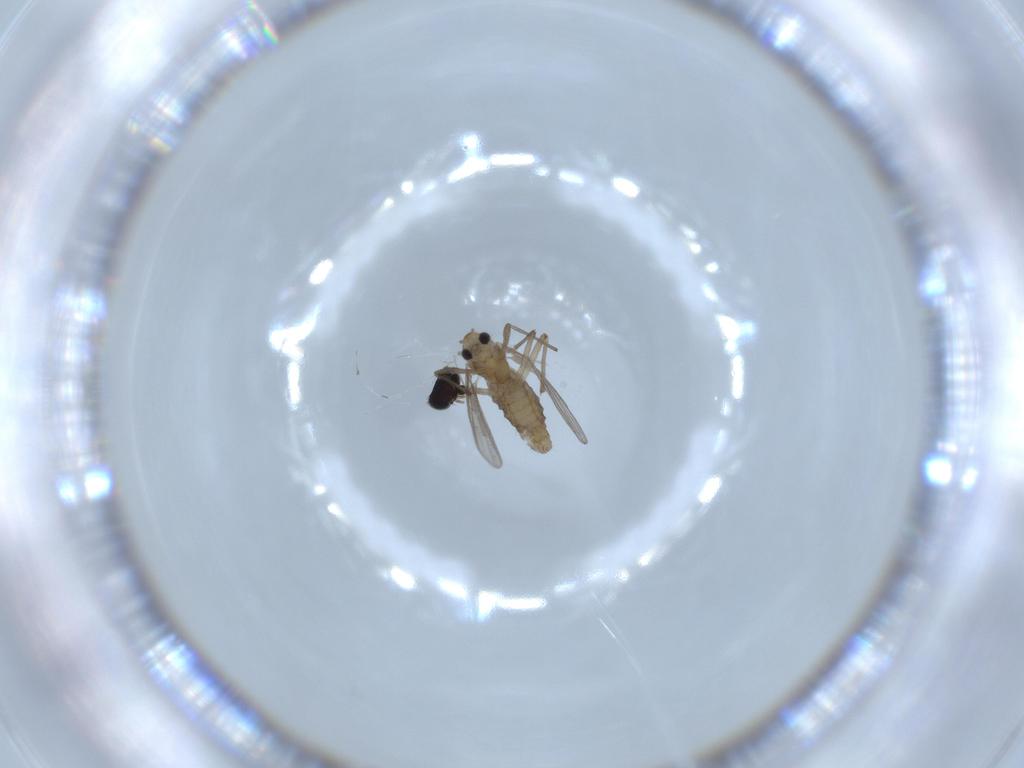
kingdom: Animalia
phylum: Arthropoda
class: Insecta
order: Diptera
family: Chironomidae
